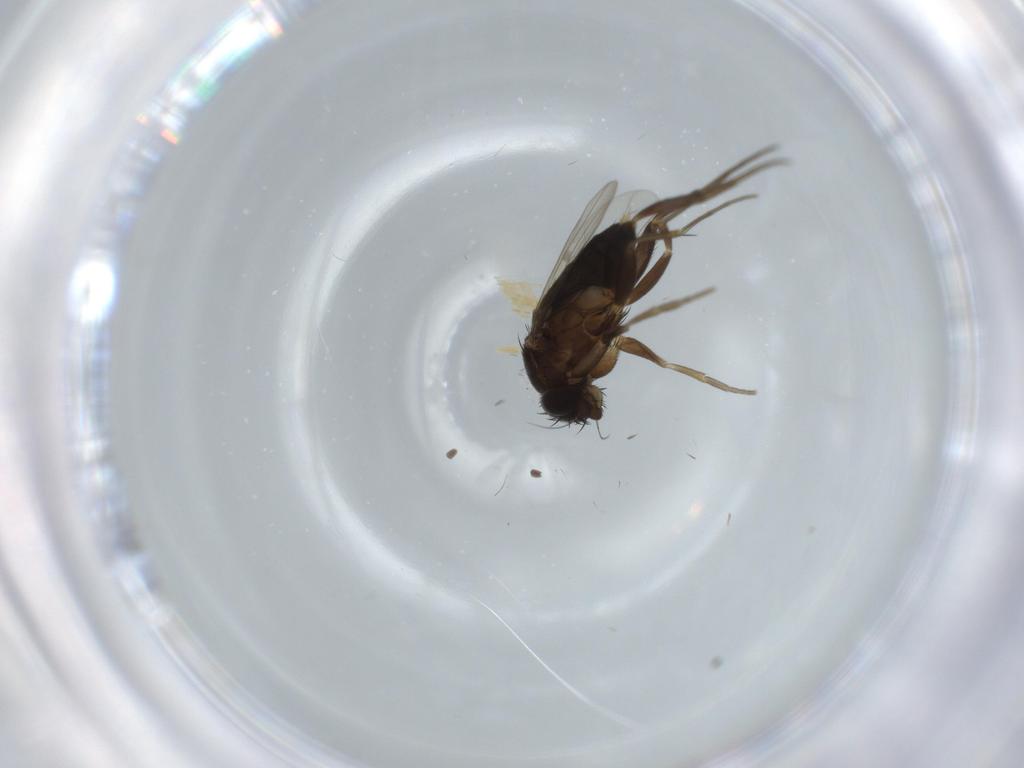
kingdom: Animalia
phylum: Arthropoda
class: Insecta
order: Diptera
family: Phoridae
